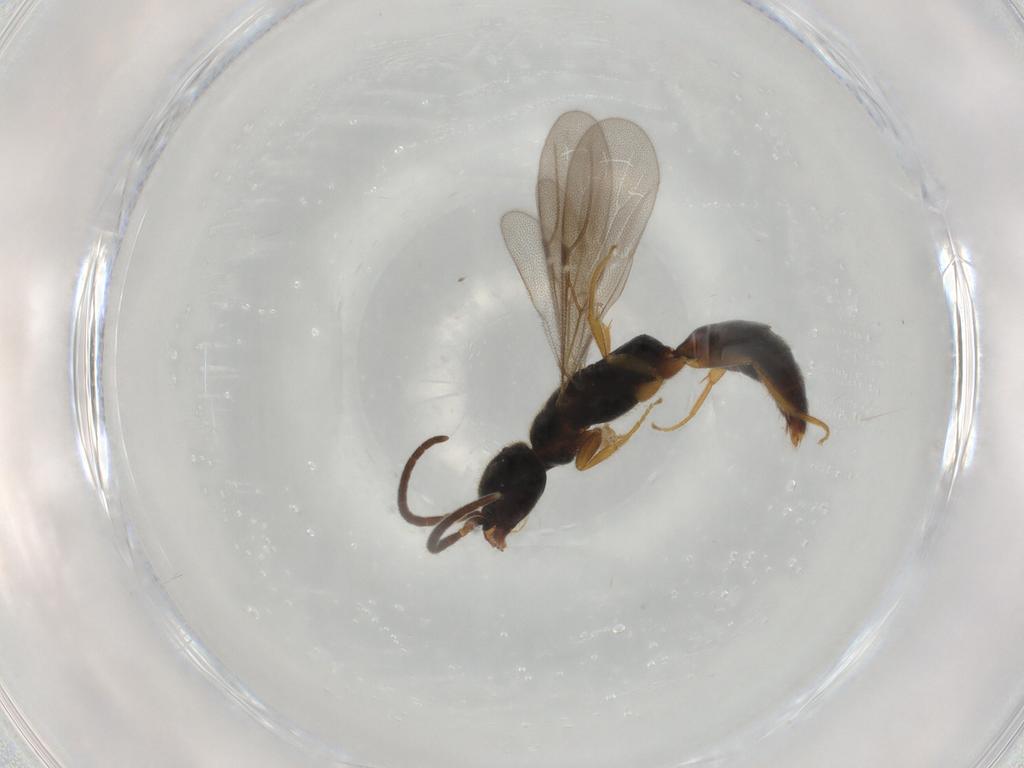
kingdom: Animalia
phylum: Arthropoda
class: Insecta
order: Hymenoptera
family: Bethylidae
